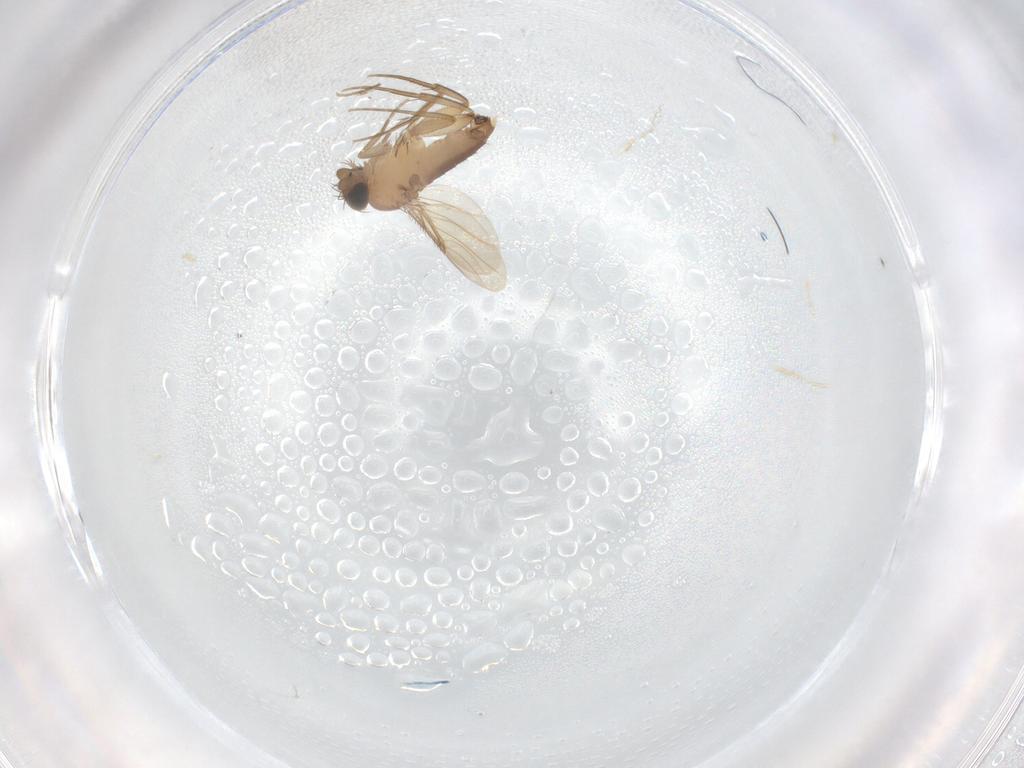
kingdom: Animalia
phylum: Arthropoda
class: Insecta
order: Diptera
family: Phoridae
